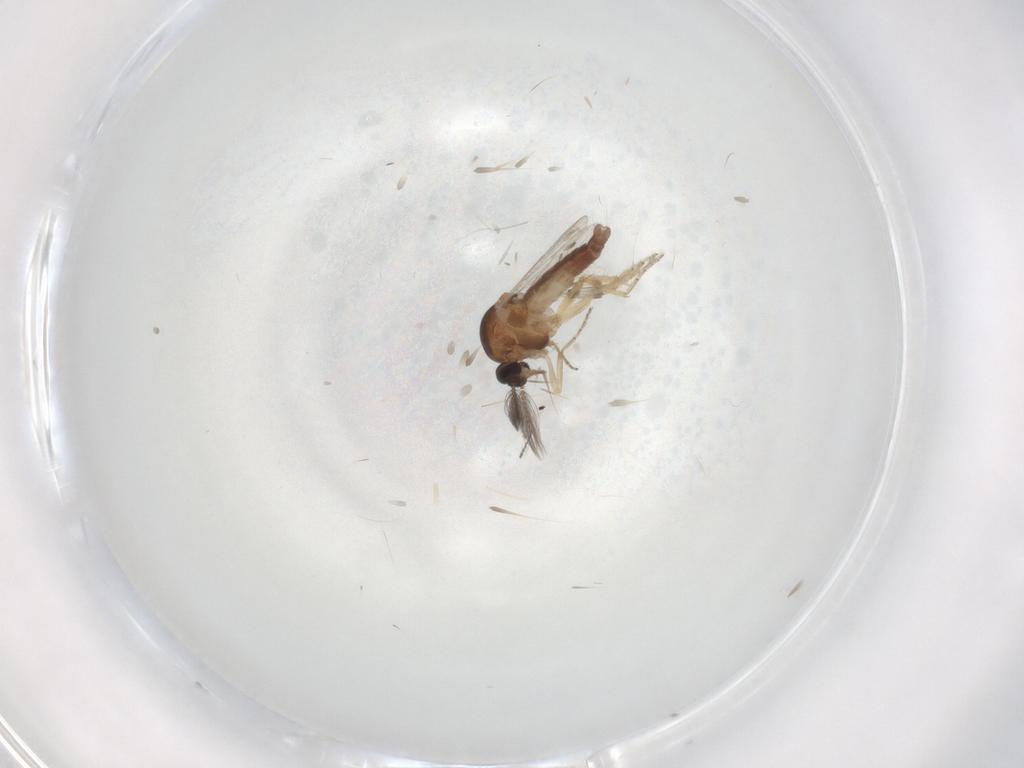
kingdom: Animalia
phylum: Arthropoda
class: Insecta
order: Diptera
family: Ceratopogonidae
